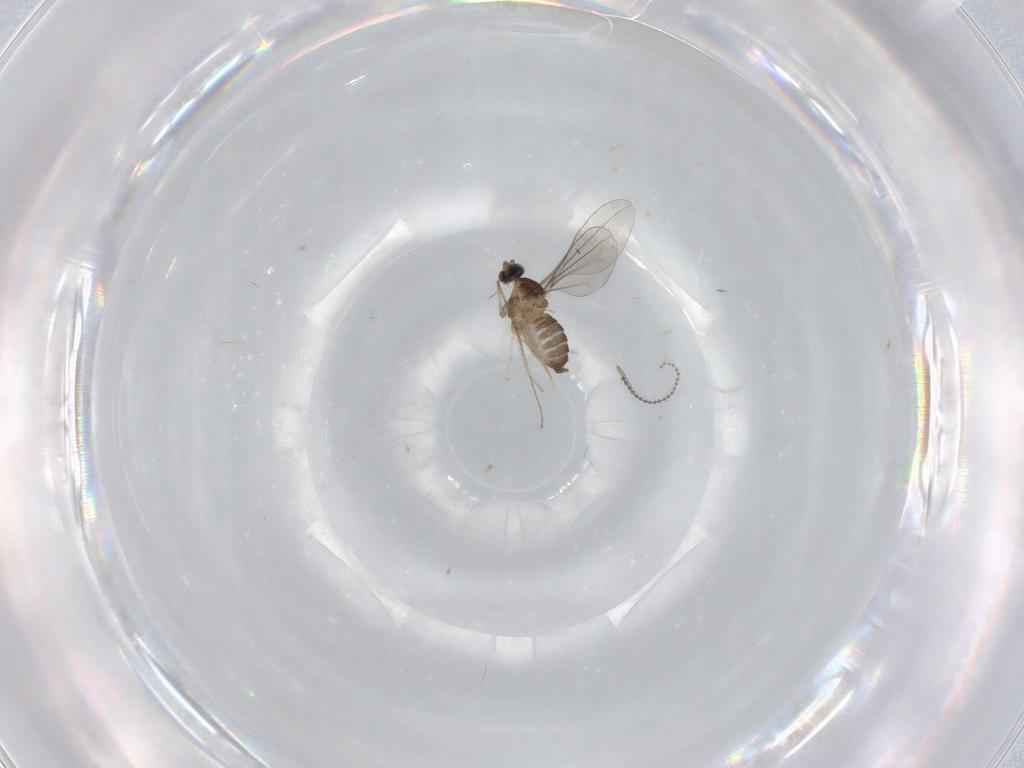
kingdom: Animalia
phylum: Arthropoda
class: Insecta
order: Diptera
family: Cecidomyiidae
